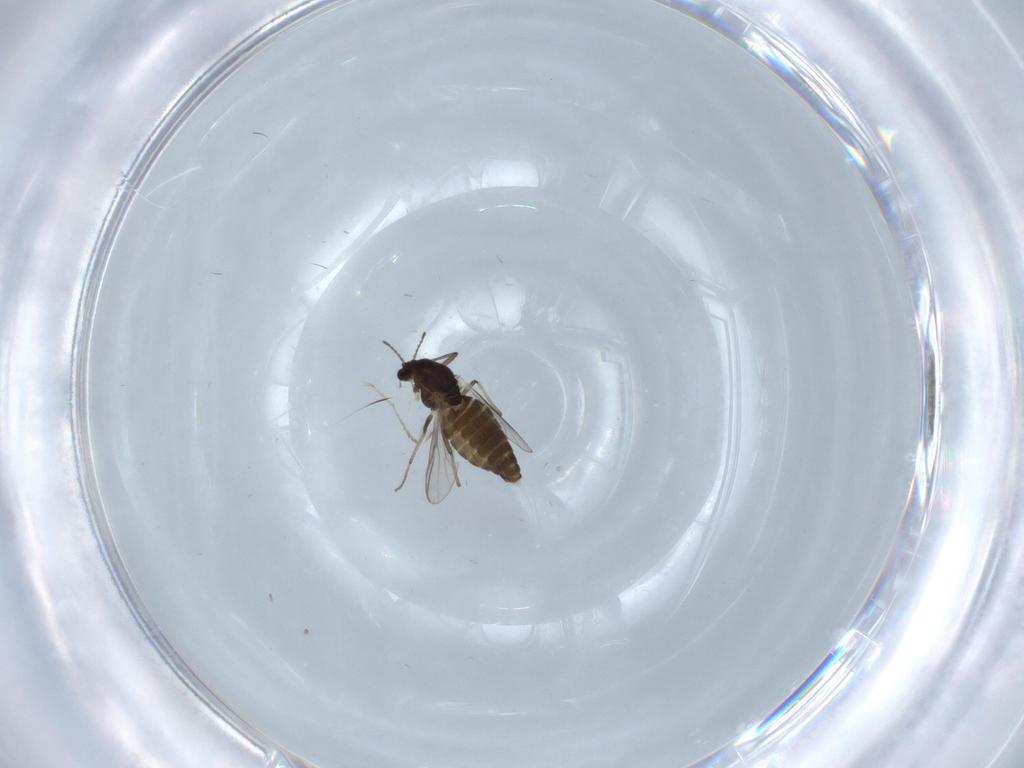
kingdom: Animalia
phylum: Arthropoda
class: Insecta
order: Diptera
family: Chironomidae
